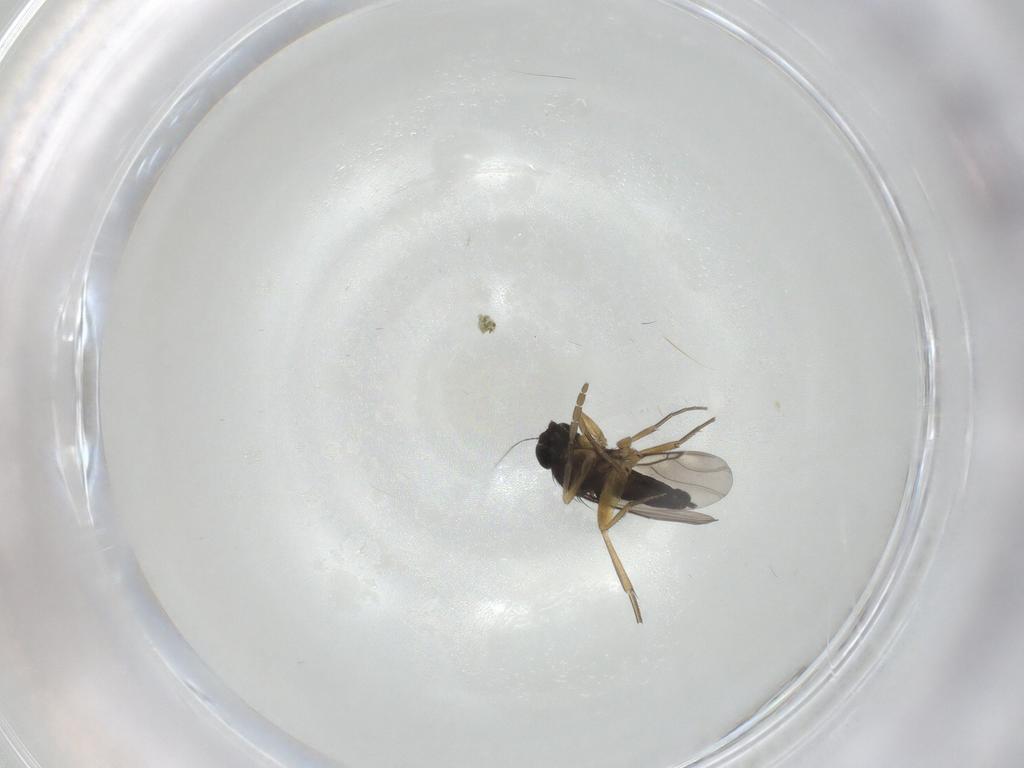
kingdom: Animalia
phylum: Arthropoda
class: Insecta
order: Diptera
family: Cecidomyiidae
